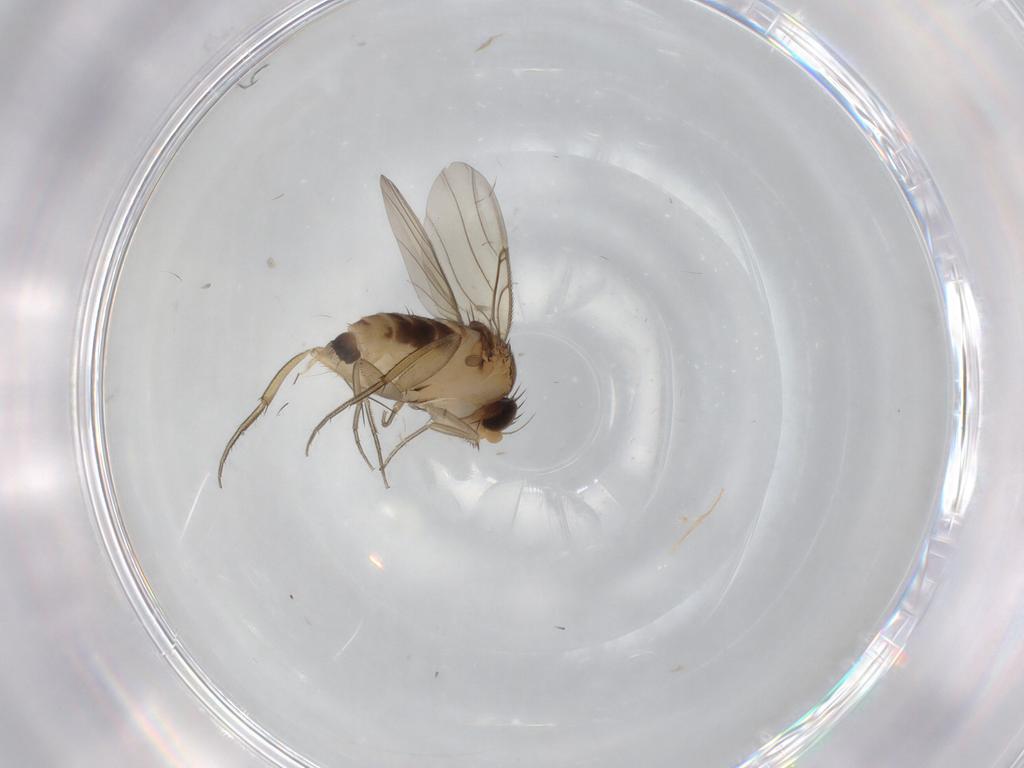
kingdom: Animalia
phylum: Arthropoda
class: Insecta
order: Diptera
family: Phoridae
